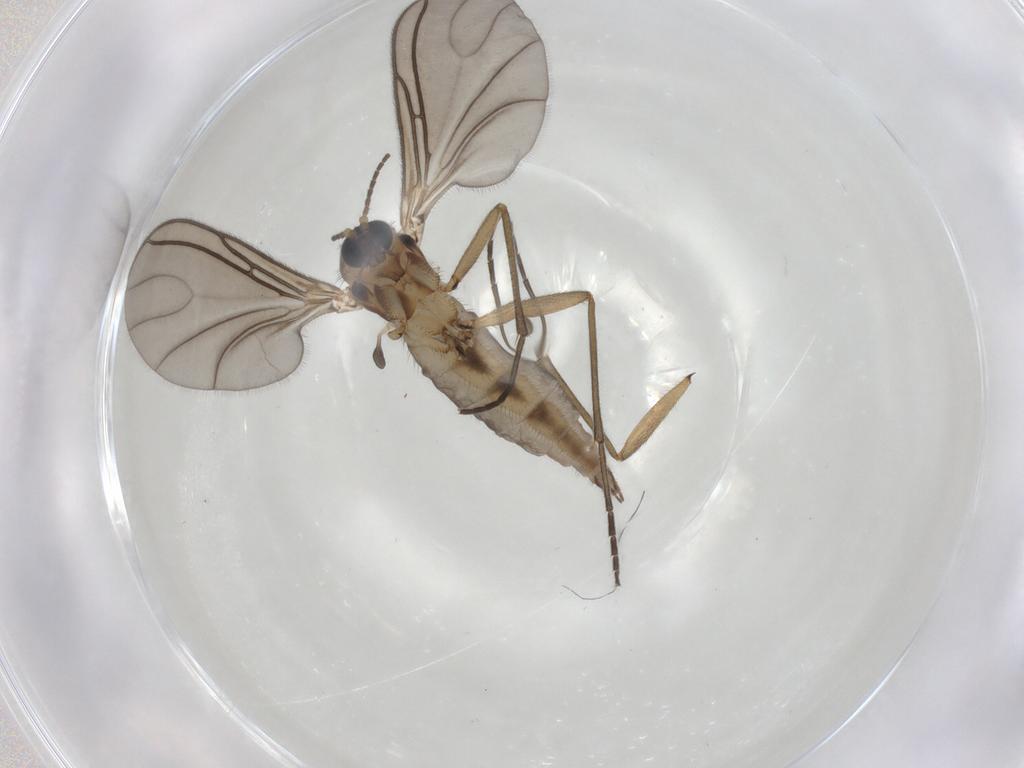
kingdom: Animalia
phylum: Arthropoda
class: Insecta
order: Diptera
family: Sciaridae
